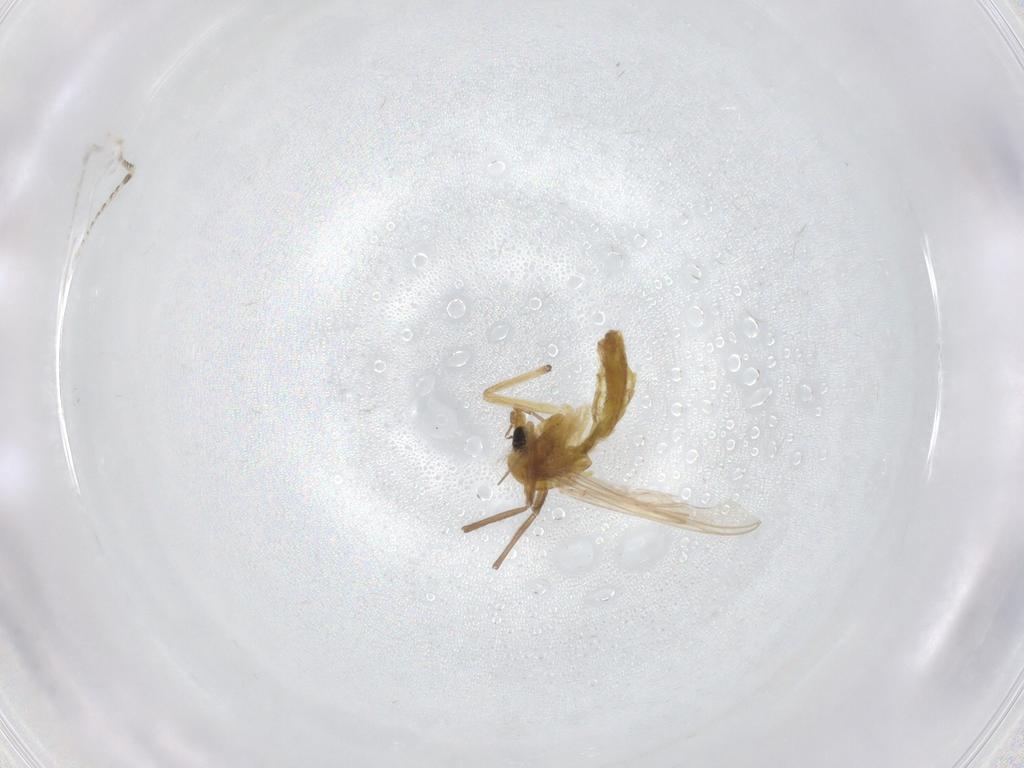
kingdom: Animalia
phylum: Arthropoda
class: Insecta
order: Diptera
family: Chironomidae
